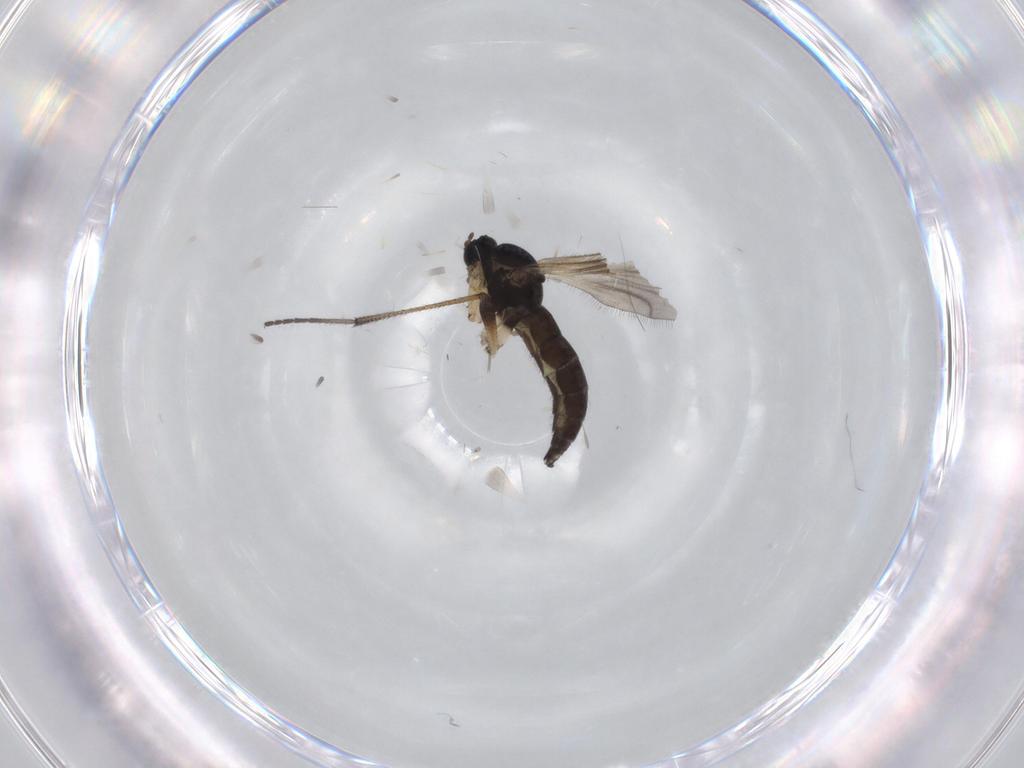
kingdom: Animalia
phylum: Arthropoda
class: Insecta
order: Diptera
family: Sciaridae
